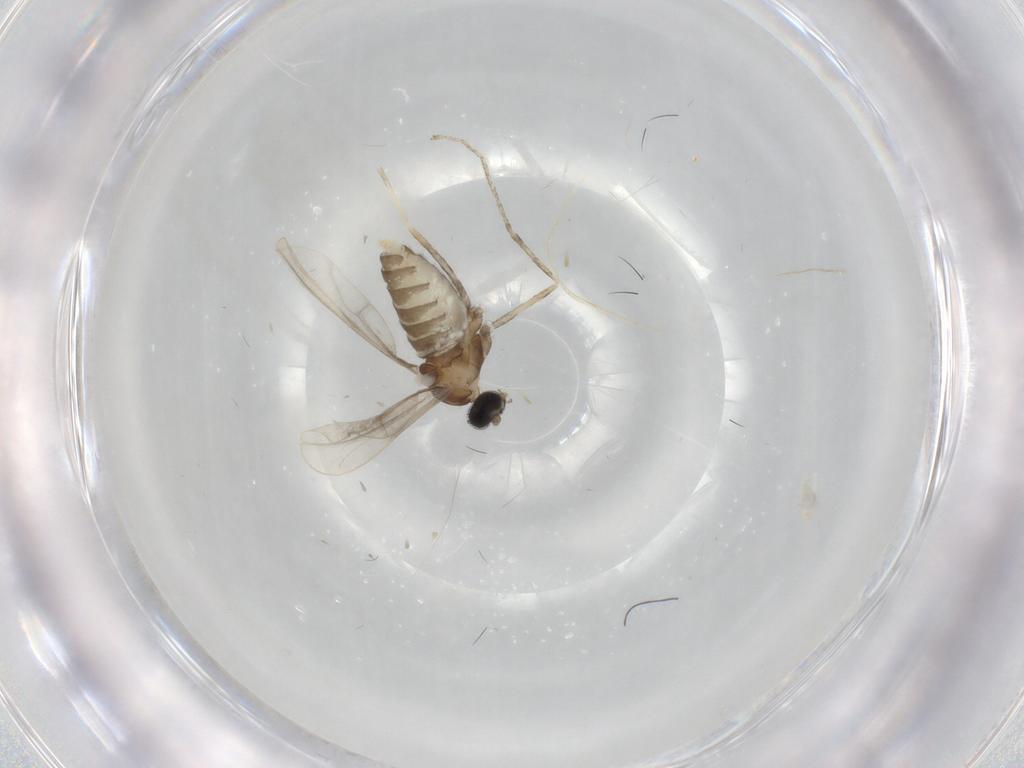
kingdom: Animalia
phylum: Arthropoda
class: Insecta
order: Diptera
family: Cecidomyiidae
